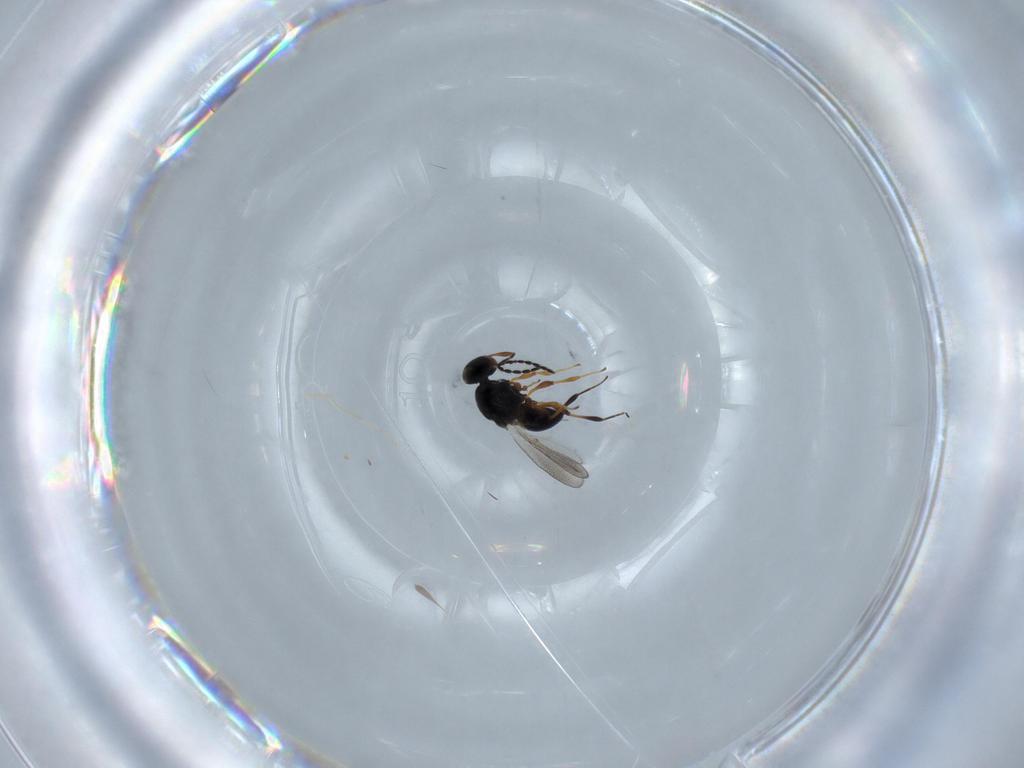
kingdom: Animalia
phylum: Arthropoda
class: Insecta
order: Hymenoptera
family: Platygastridae
